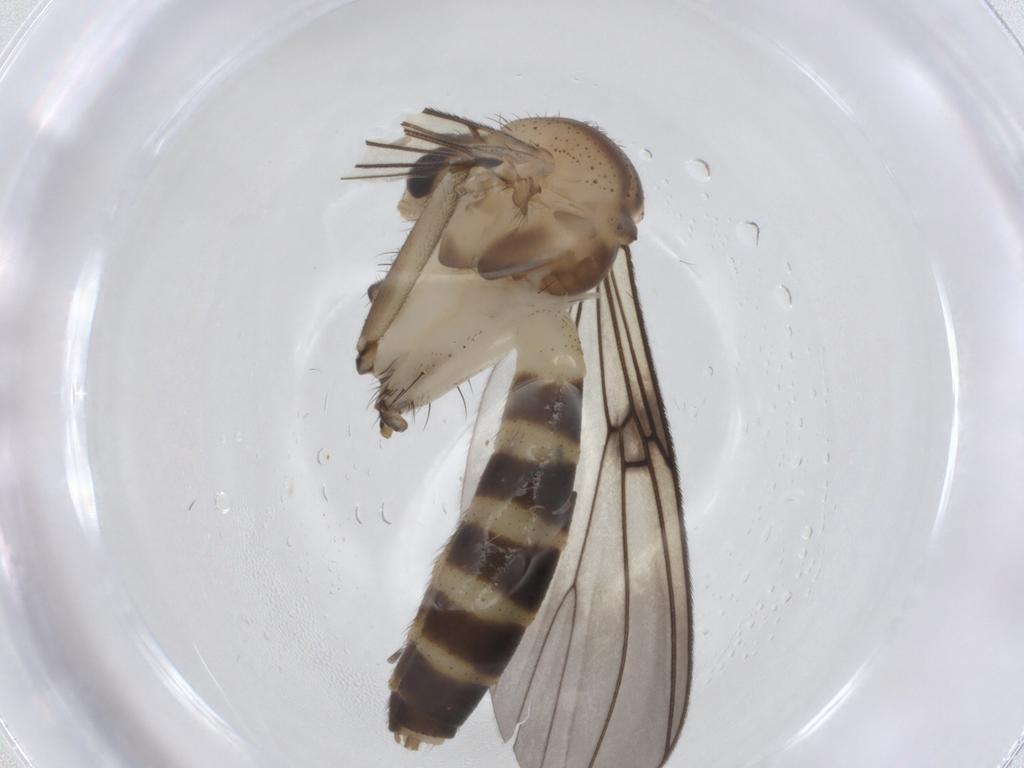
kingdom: Animalia
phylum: Arthropoda
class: Insecta
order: Diptera
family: Mycetophilidae
